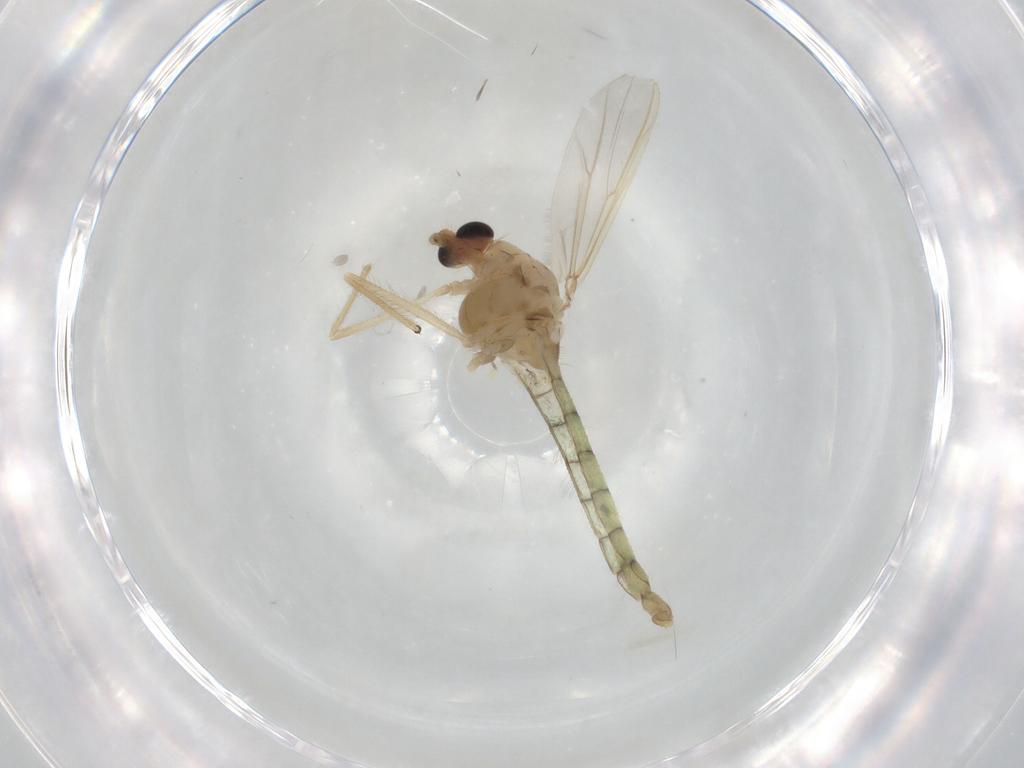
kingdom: Animalia
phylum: Arthropoda
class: Insecta
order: Diptera
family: Chironomidae
